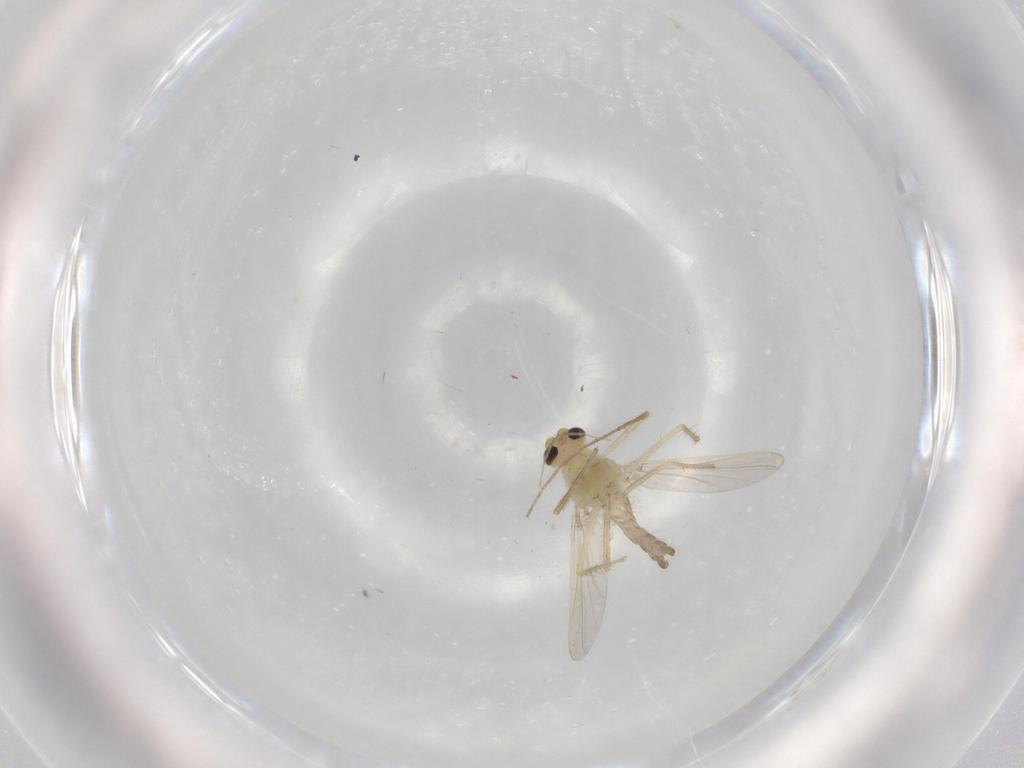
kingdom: Animalia
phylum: Arthropoda
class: Insecta
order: Diptera
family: Chironomidae
